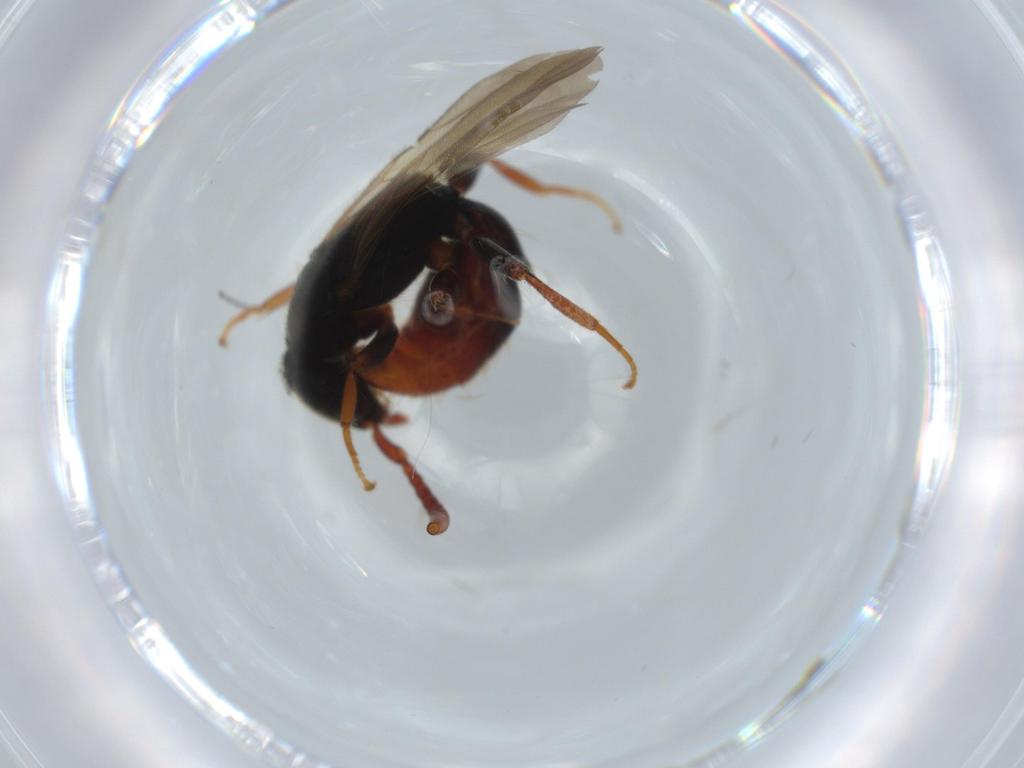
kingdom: Animalia
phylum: Arthropoda
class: Insecta
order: Hymenoptera
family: Bethylidae
